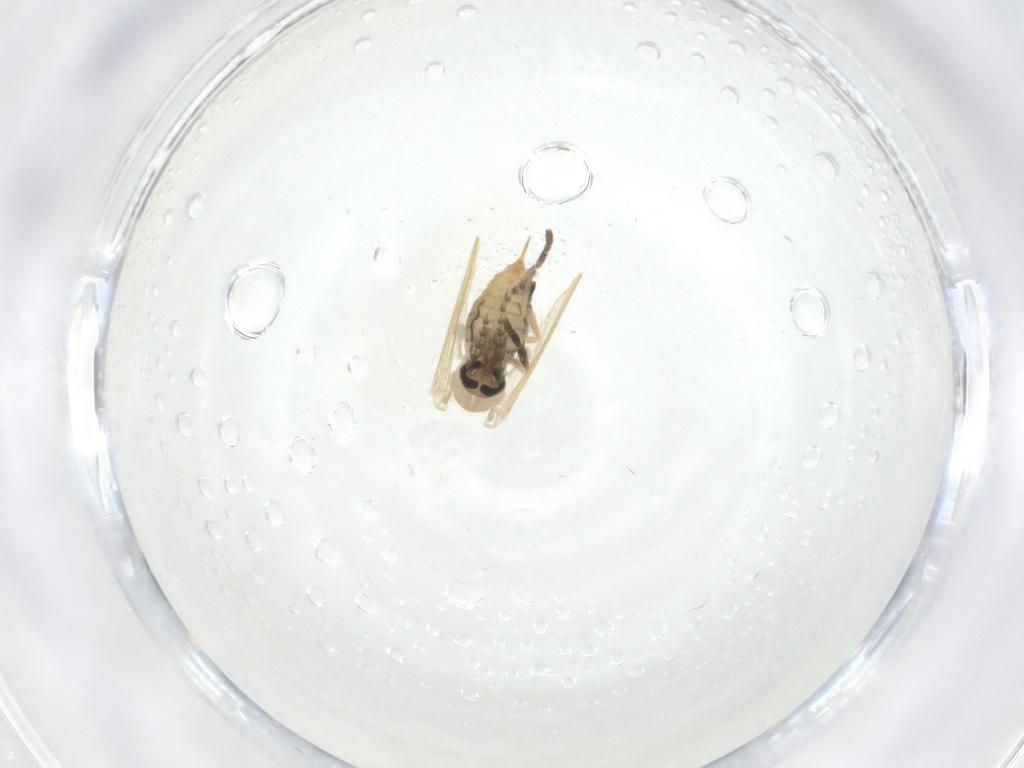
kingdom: Animalia
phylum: Arthropoda
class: Insecta
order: Diptera
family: Psychodidae
